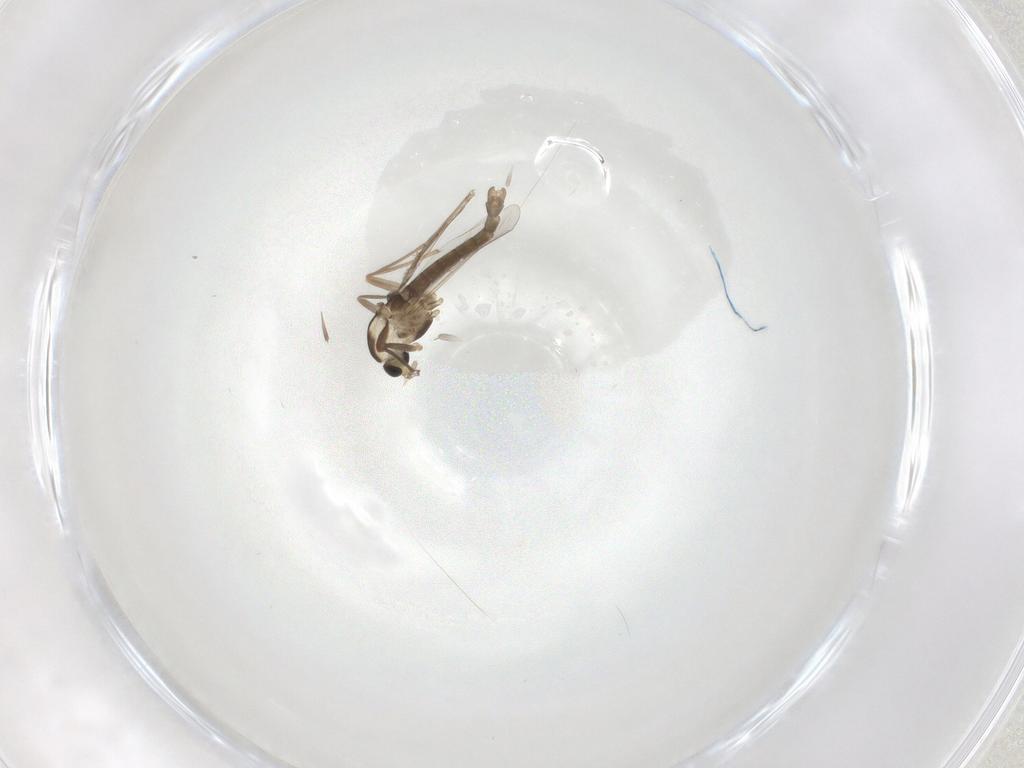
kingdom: Animalia
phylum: Arthropoda
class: Insecta
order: Diptera
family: Chironomidae
